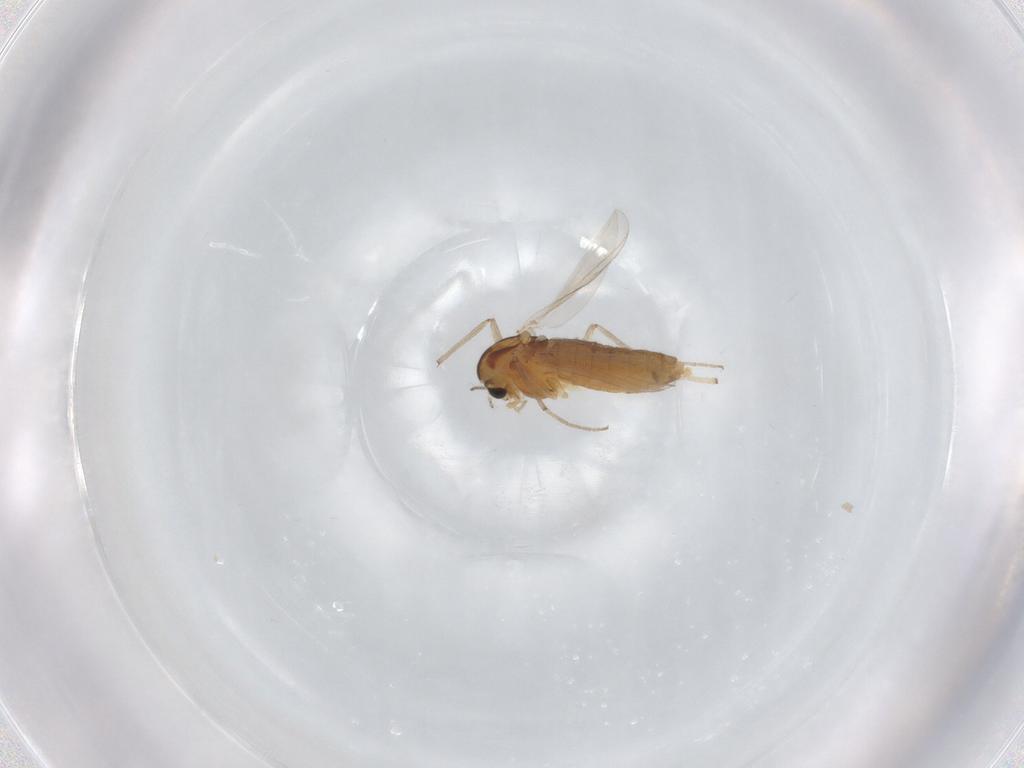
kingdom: Animalia
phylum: Arthropoda
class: Insecta
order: Diptera
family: Chironomidae
